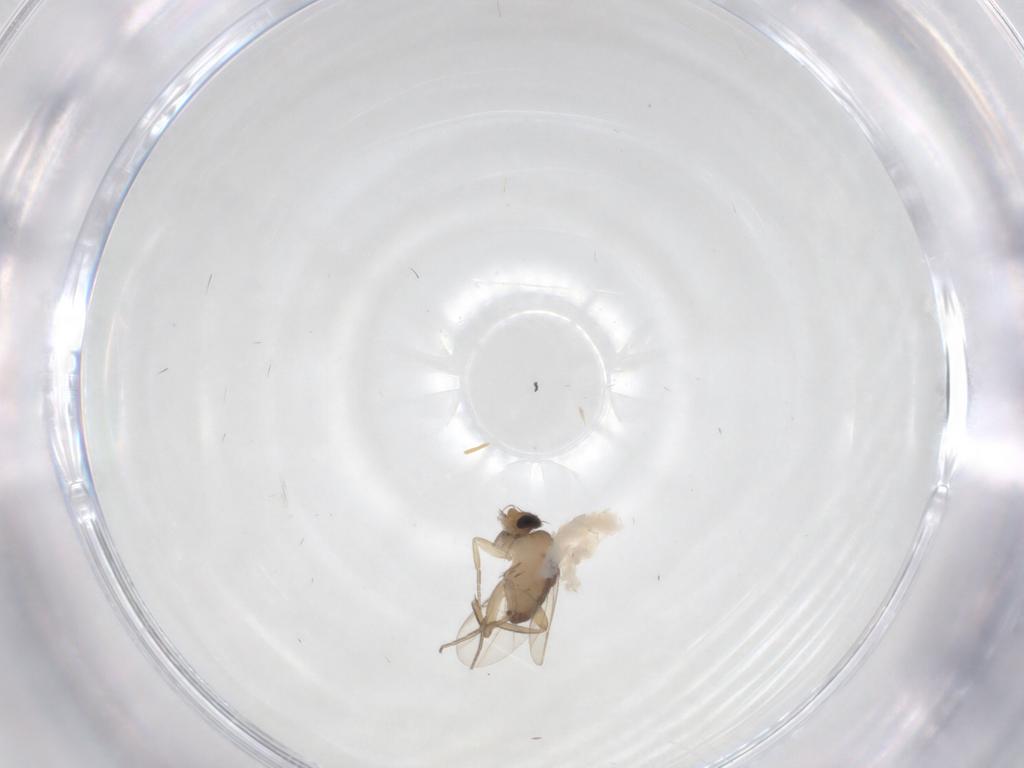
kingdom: Animalia
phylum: Arthropoda
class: Insecta
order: Diptera
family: Phoridae
